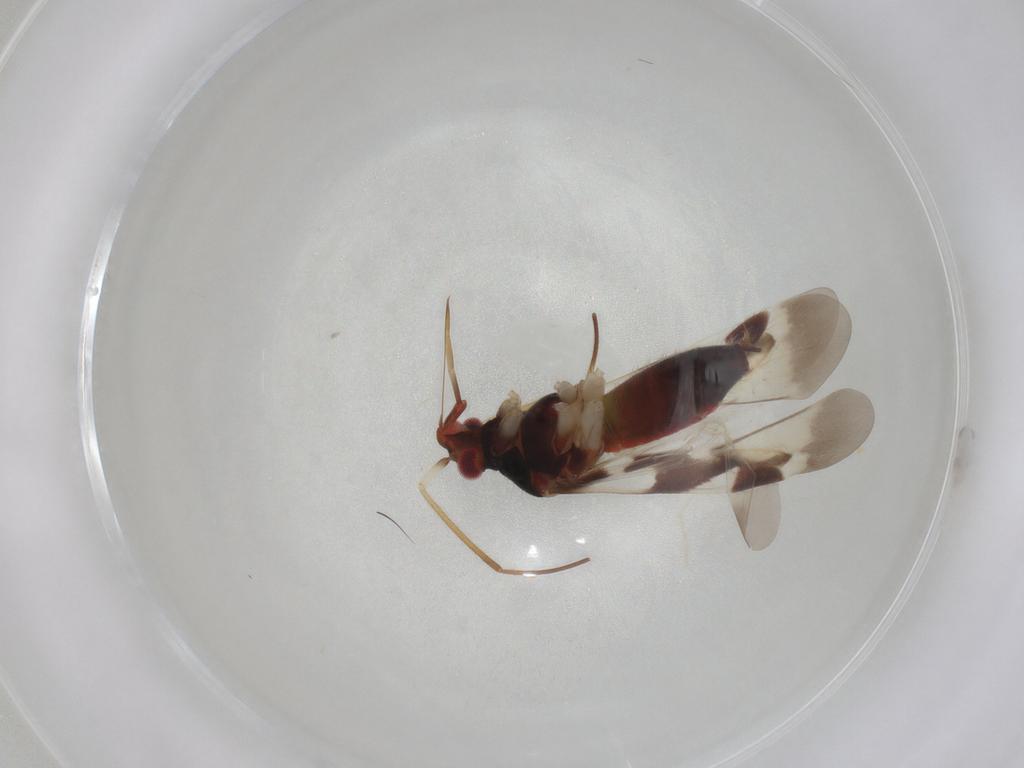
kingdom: Animalia
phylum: Arthropoda
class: Insecta
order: Hemiptera
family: Miridae
